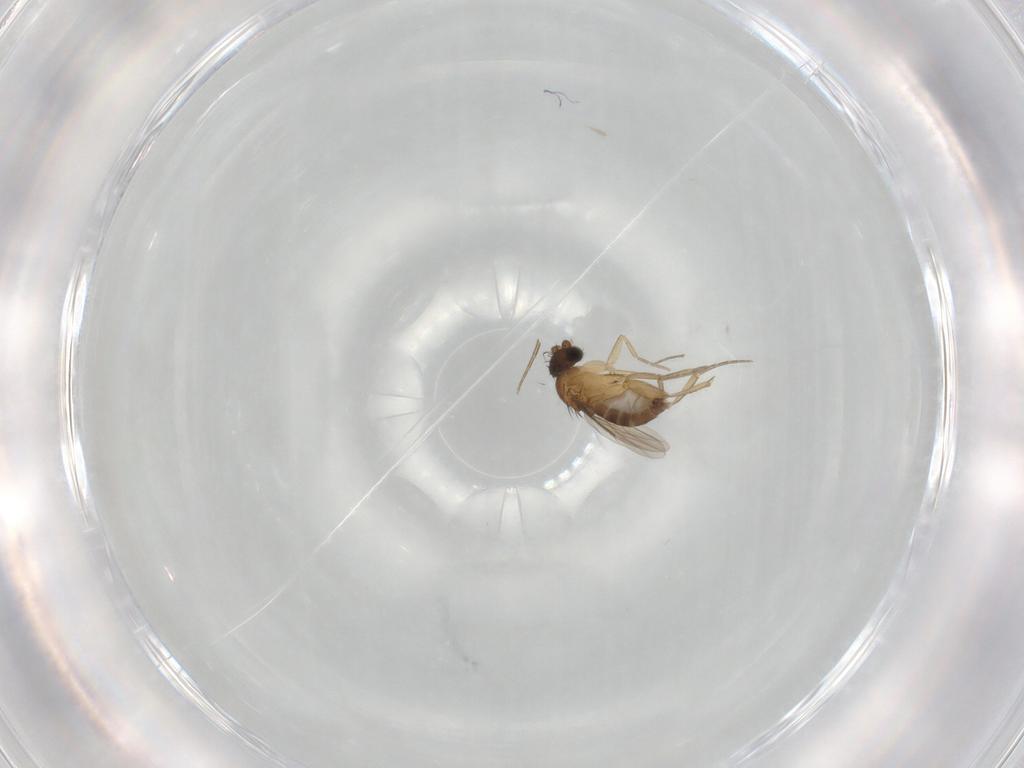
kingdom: Animalia
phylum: Arthropoda
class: Insecta
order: Diptera
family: Phoridae
